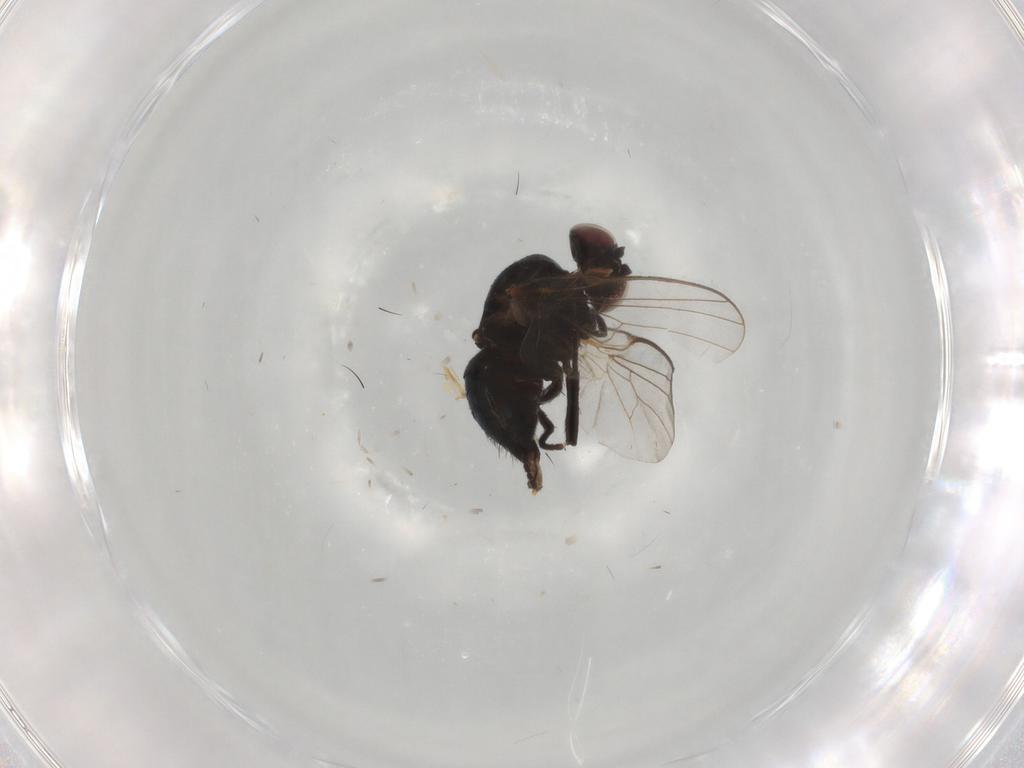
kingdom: Animalia
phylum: Arthropoda
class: Insecta
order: Diptera
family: Agromyzidae
